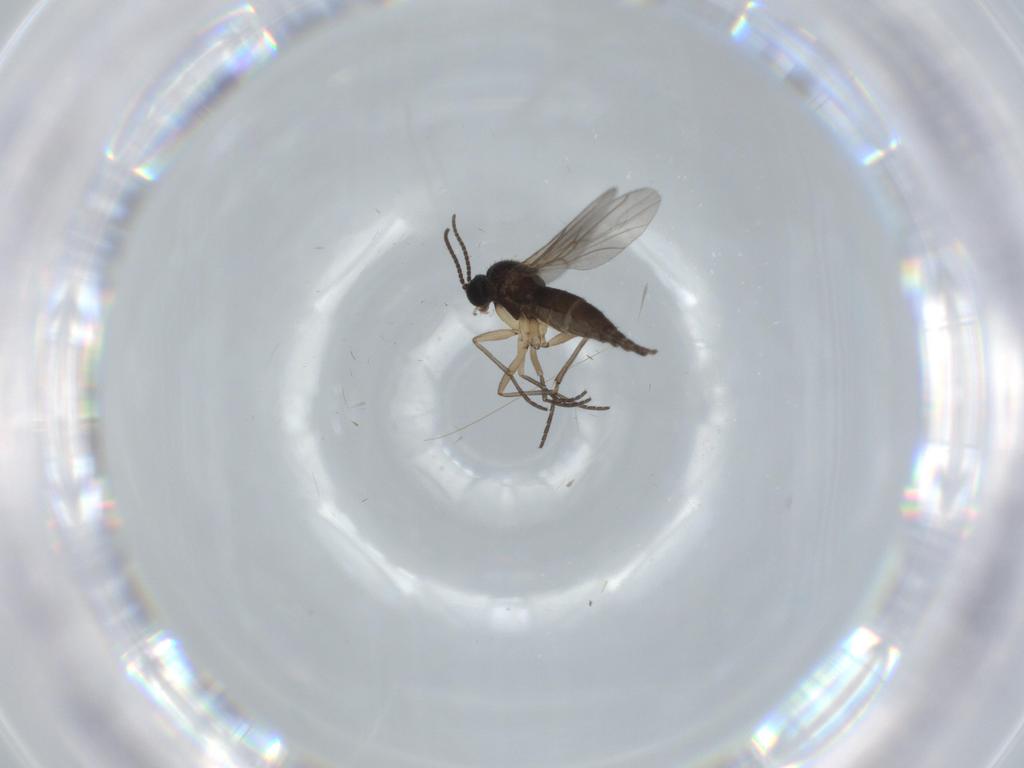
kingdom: Animalia
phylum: Arthropoda
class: Insecta
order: Diptera
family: Sciaridae
